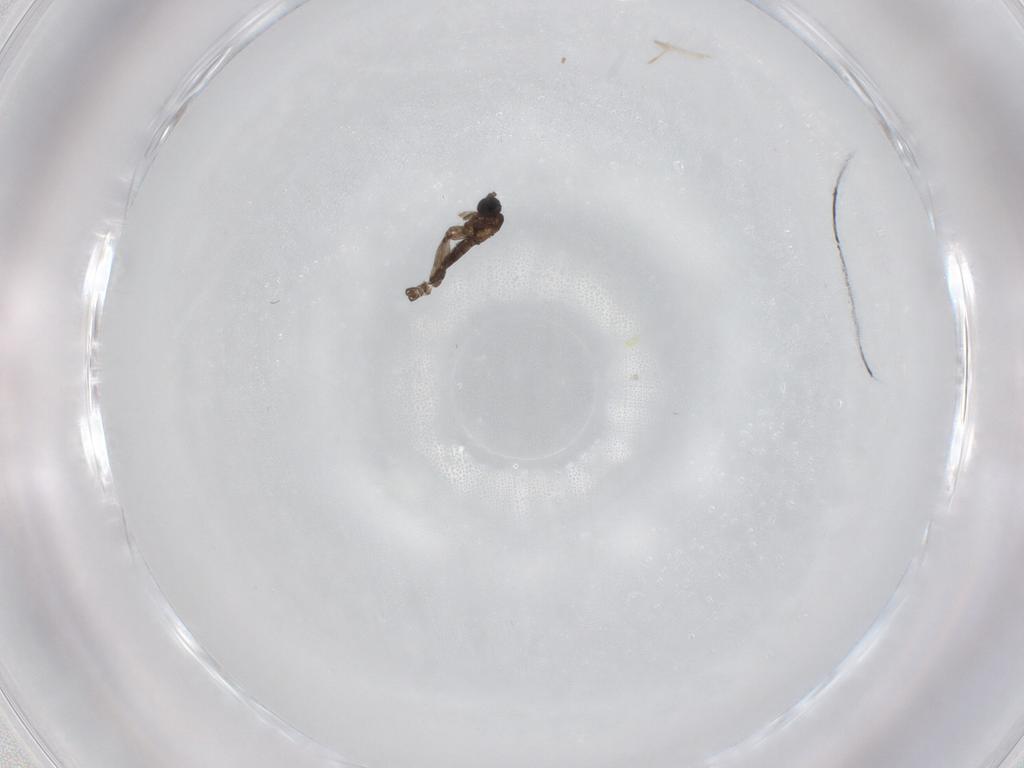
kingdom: Animalia
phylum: Arthropoda
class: Insecta
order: Diptera
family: Sciaridae
